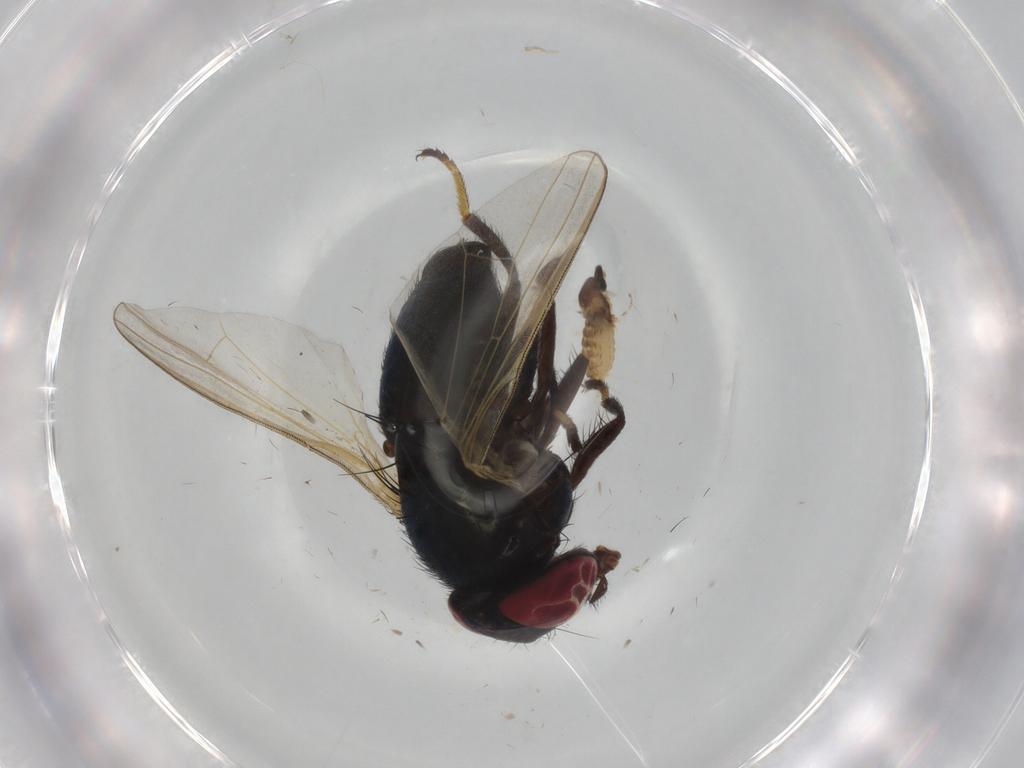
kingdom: Animalia
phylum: Arthropoda
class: Insecta
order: Diptera
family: Lonchaeidae
